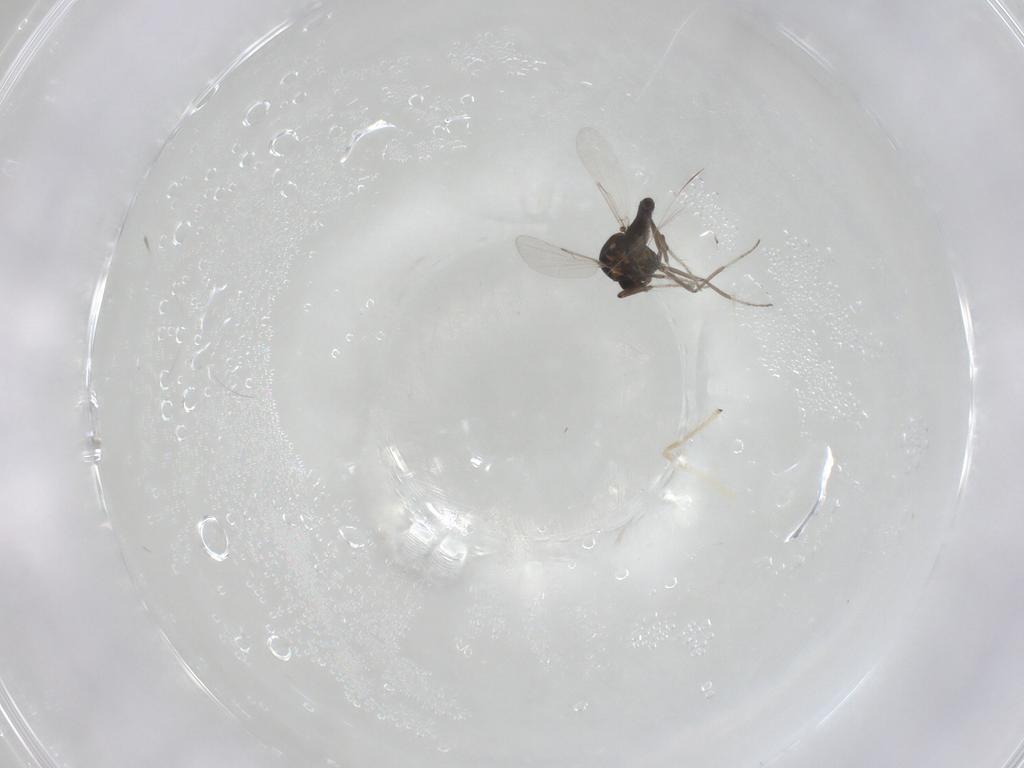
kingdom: Animalia
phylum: Arthropoda
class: Insecta
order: Diptera
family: Ceratopogonidae
